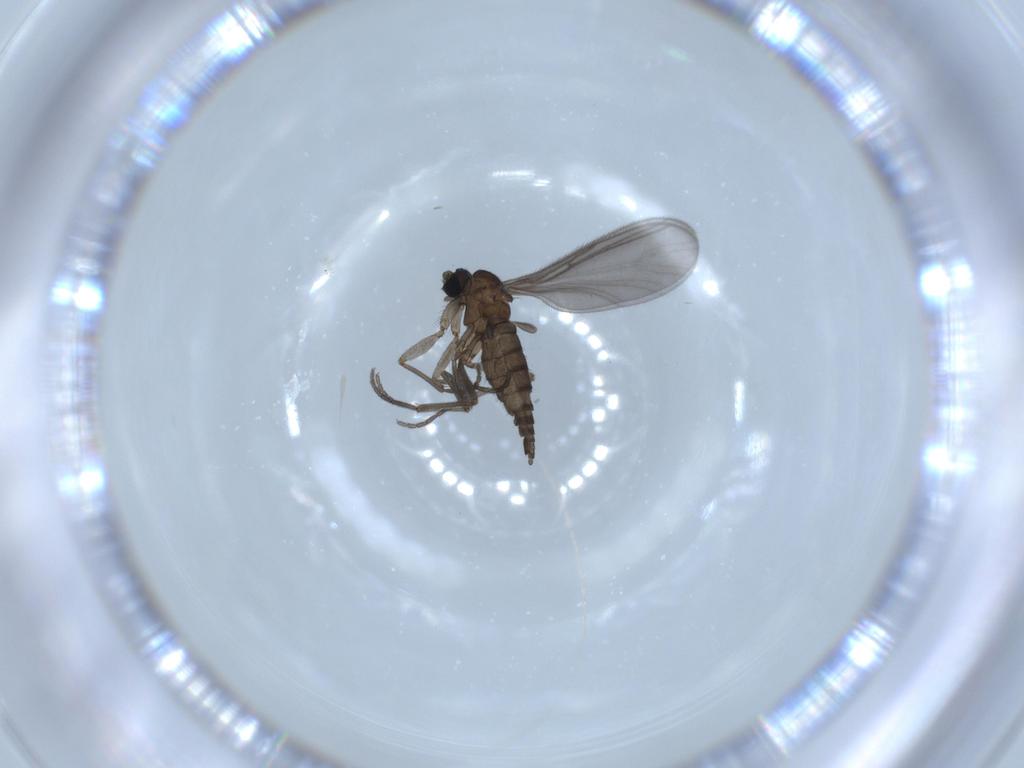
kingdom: Animalia
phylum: Arthropoda
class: Insecta
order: Diptera
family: Sciaridae
